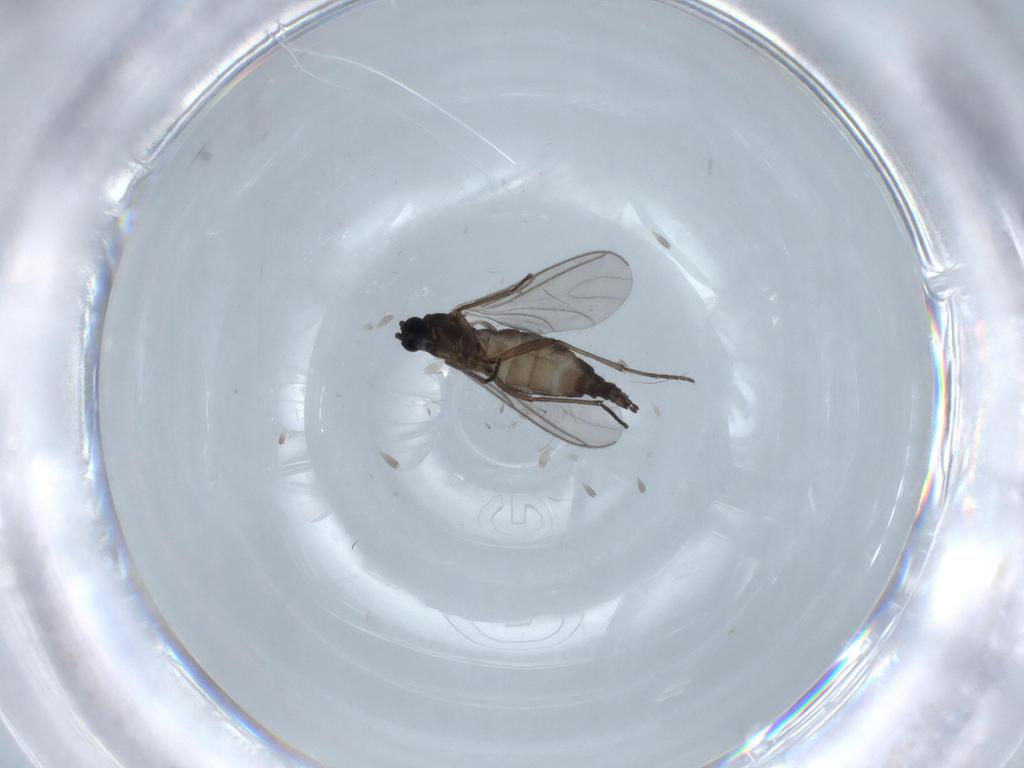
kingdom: Animalia
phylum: Arthropoda
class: Insecta
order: Diptera
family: Sciaridae
